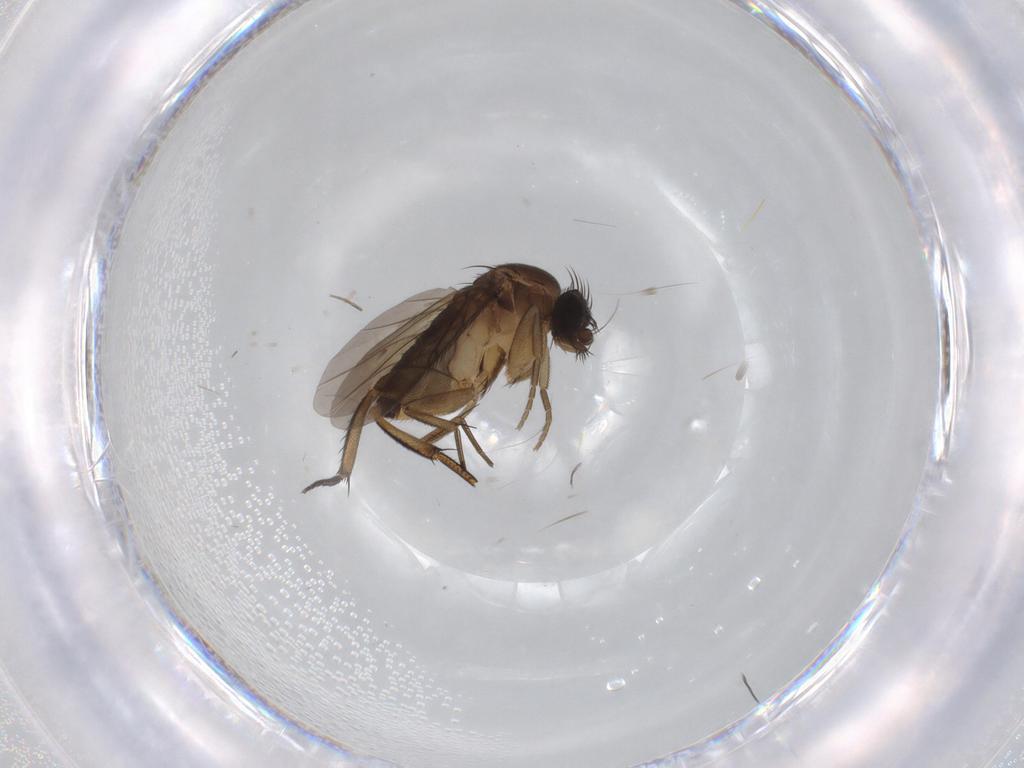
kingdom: Animalia
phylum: Arthropoda
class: Insecta
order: Diptera
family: Phoridae
